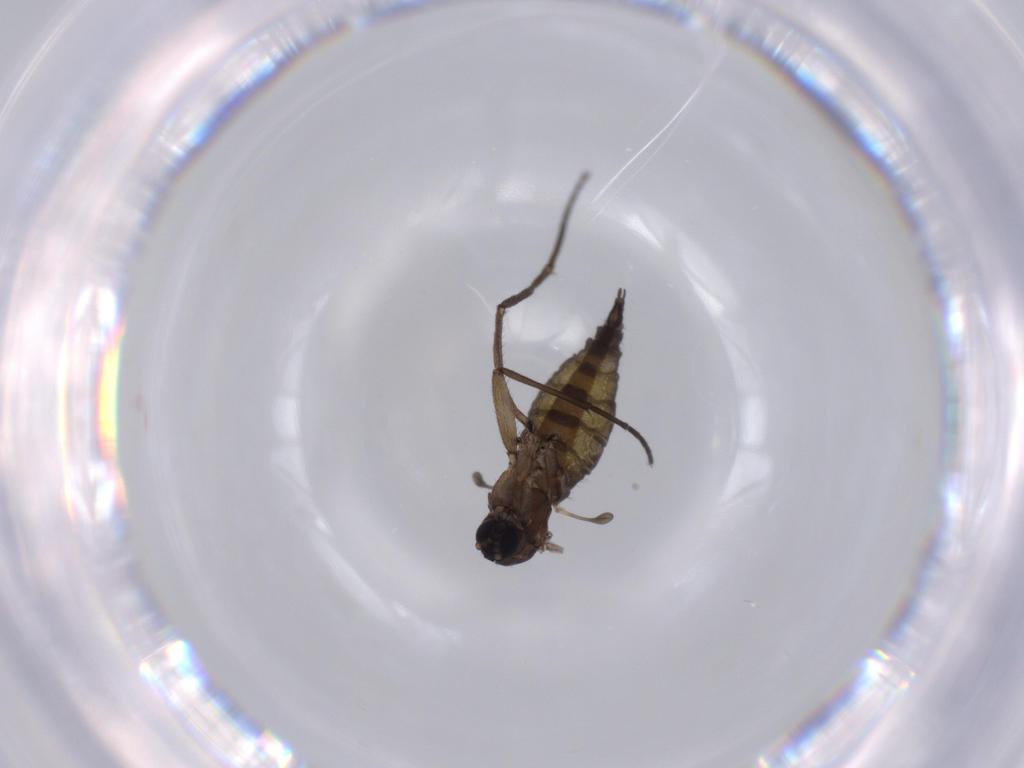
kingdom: Animalia
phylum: Arthropoda
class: Insecta
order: Diptera
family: Sciaridae
